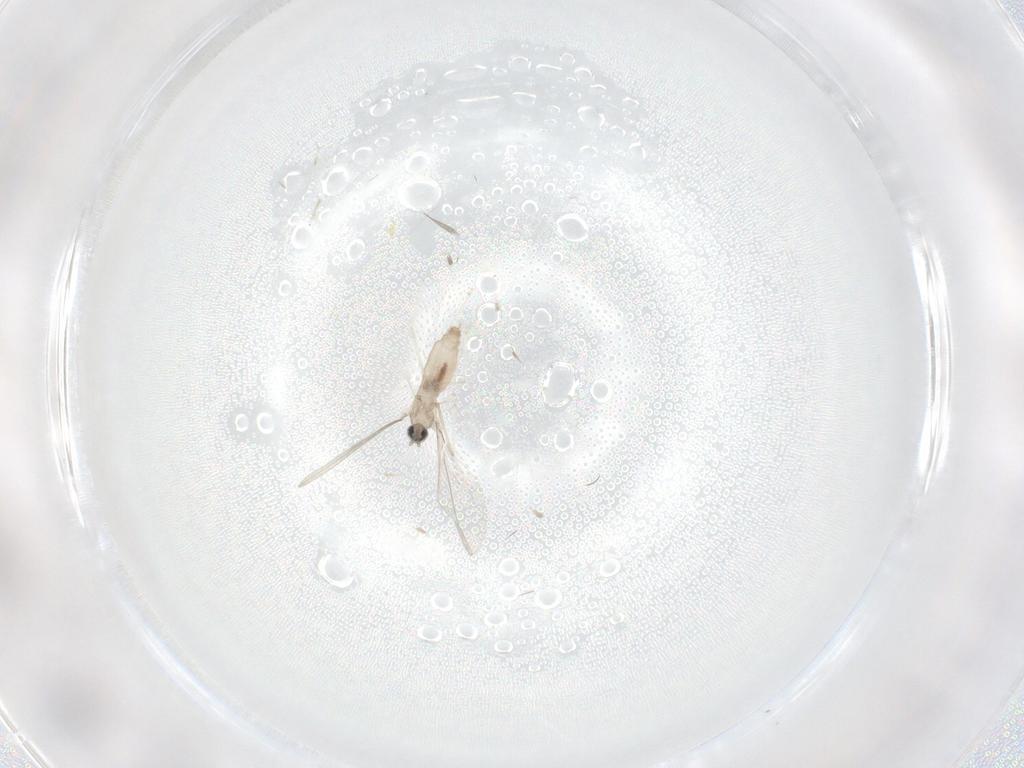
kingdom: Animalia
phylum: Arthropoda
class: Insecta
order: Diptera
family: Cecidomyiidae
